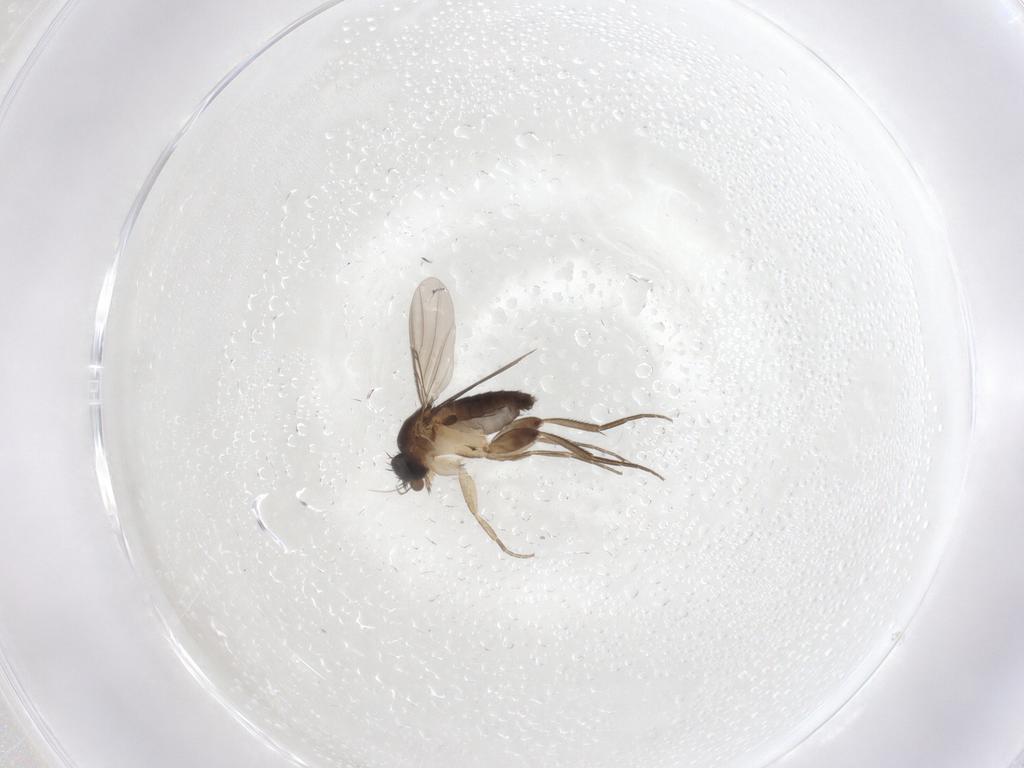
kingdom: Animalia
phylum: Arthropoda
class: Insecta
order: Diptera
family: Phoridae
